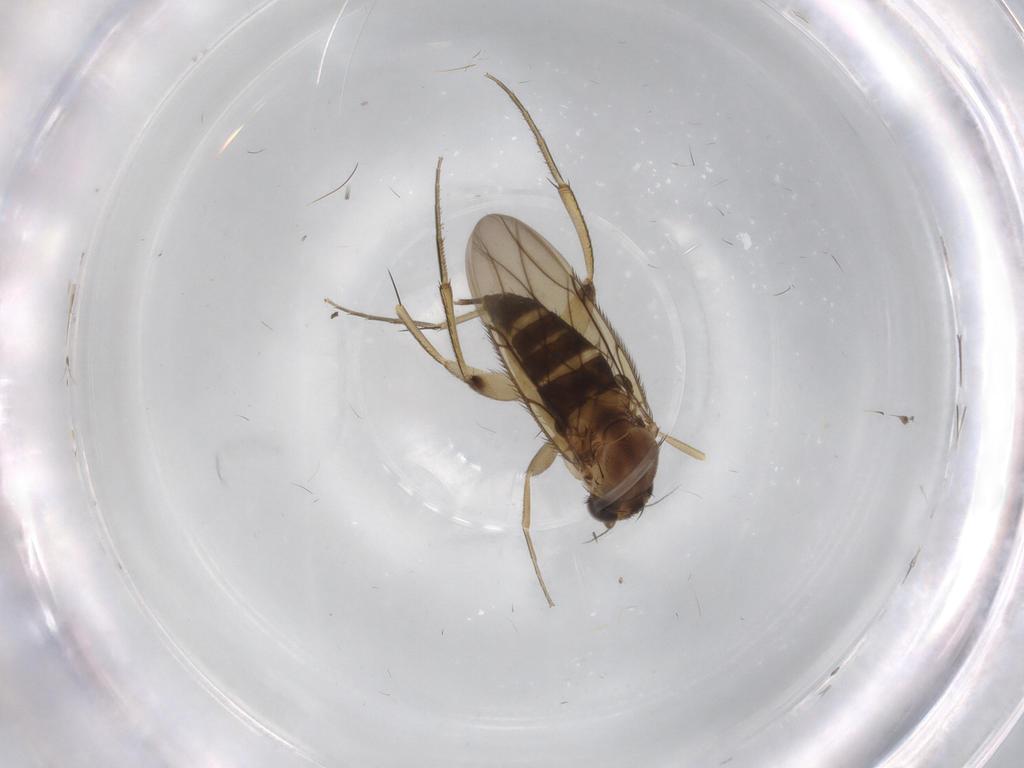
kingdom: Animalia
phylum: Arthropoda
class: Insecta
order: Diptera
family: Phoridae
